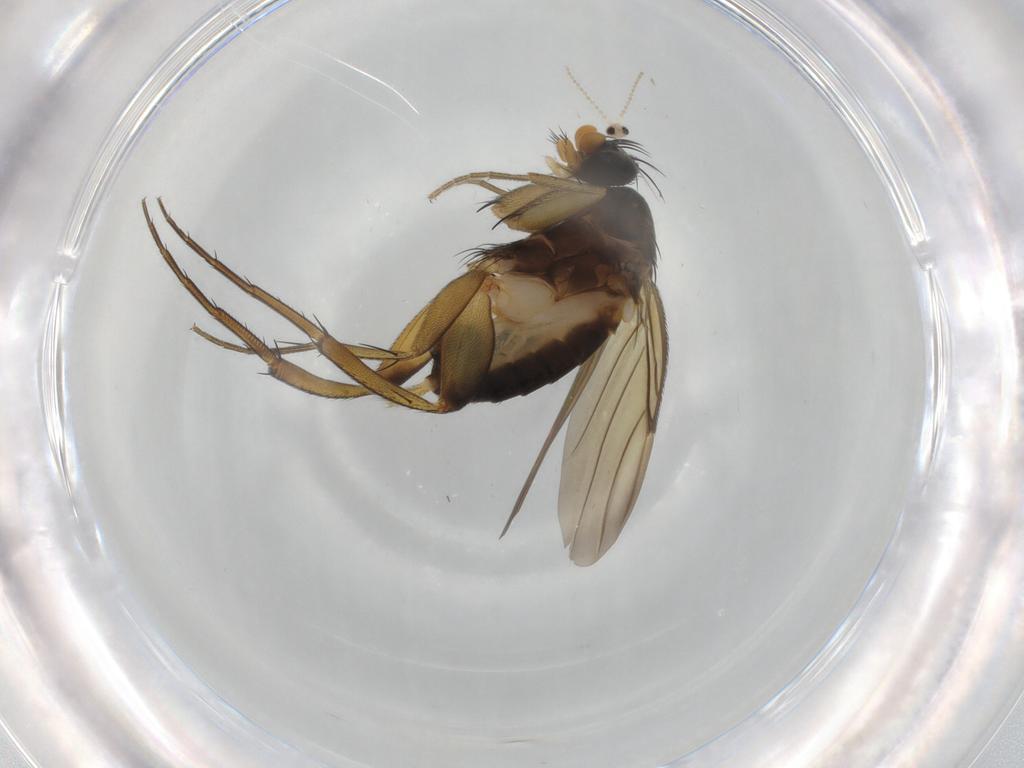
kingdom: Animalia
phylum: Arthropoda
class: Insecta
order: Diptera
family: Phoridae
